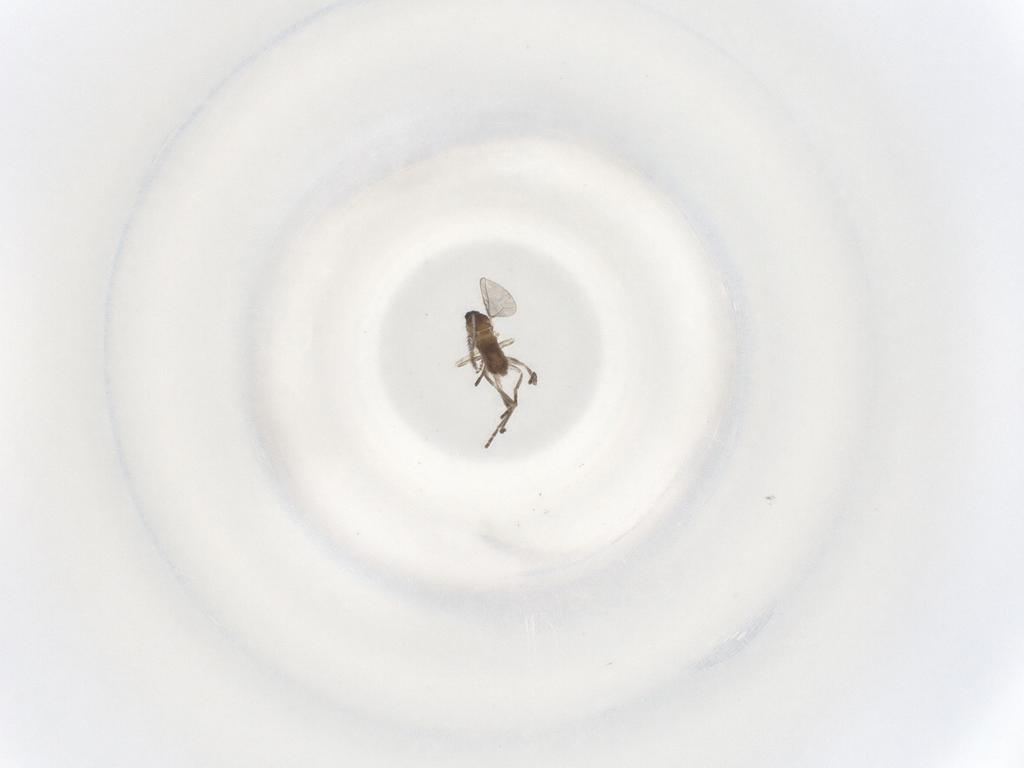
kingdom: Animalia
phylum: Arthropoda
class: Insecta
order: Diptera
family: Cecidomyiidae
